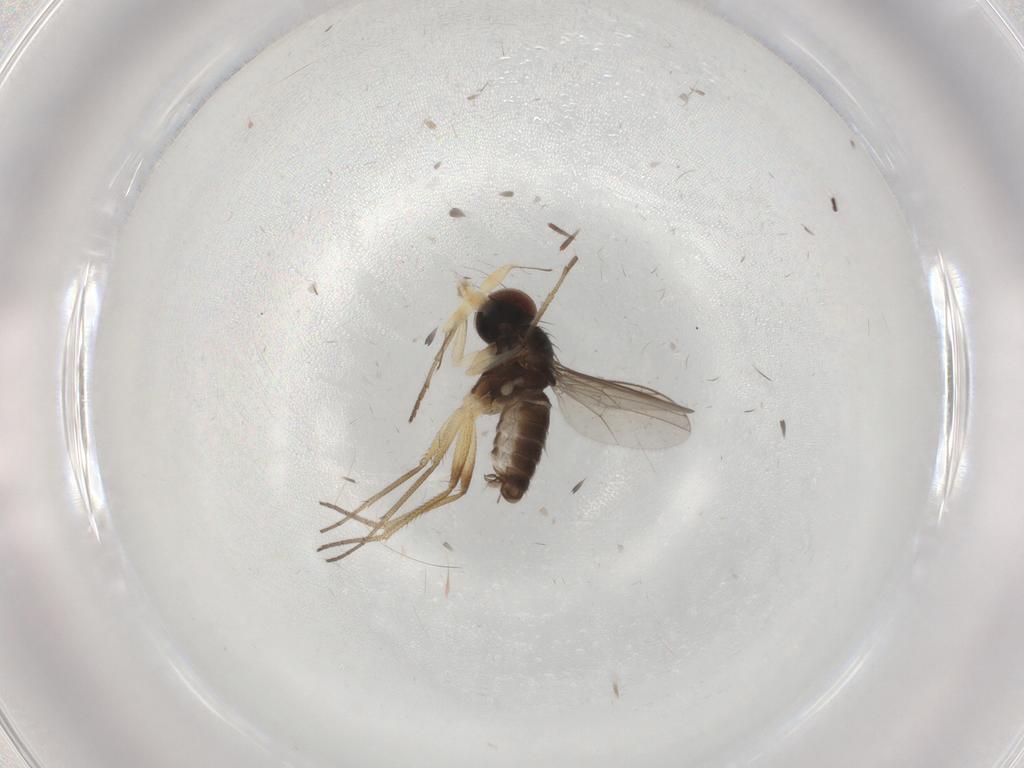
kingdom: Animalia
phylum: Arthropoda
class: Insecta
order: Diptera
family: Dolichopodidae
